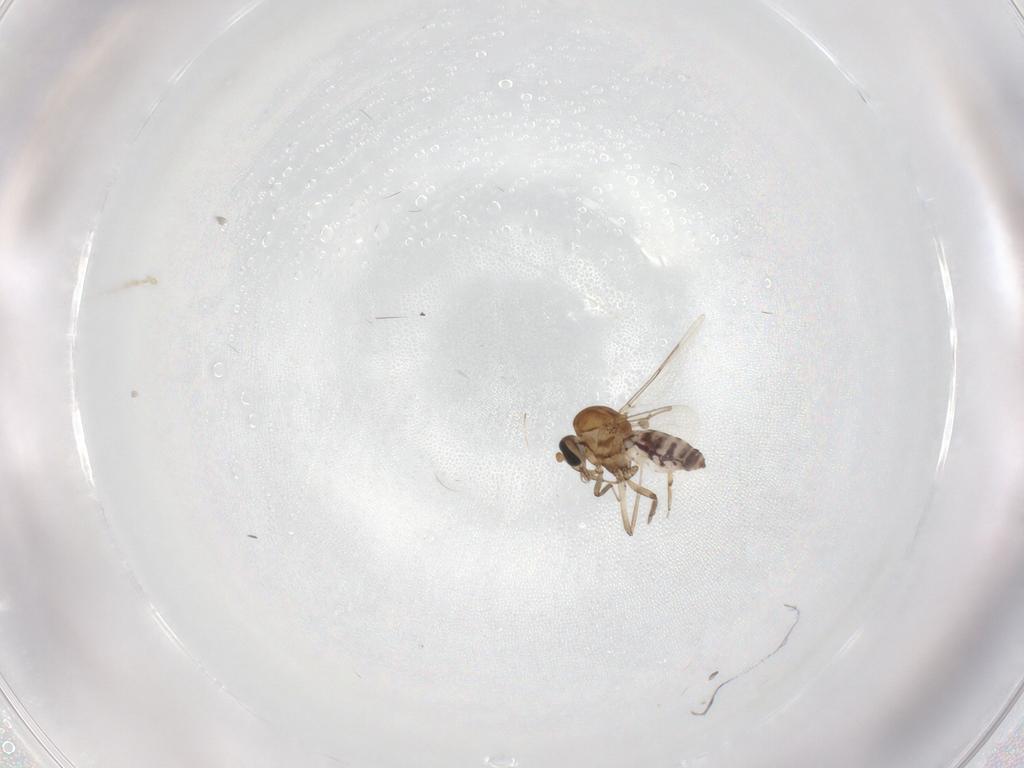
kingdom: Animalia
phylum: Arthropoda
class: Insecta
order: Diptera
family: Ceratopogonidae
